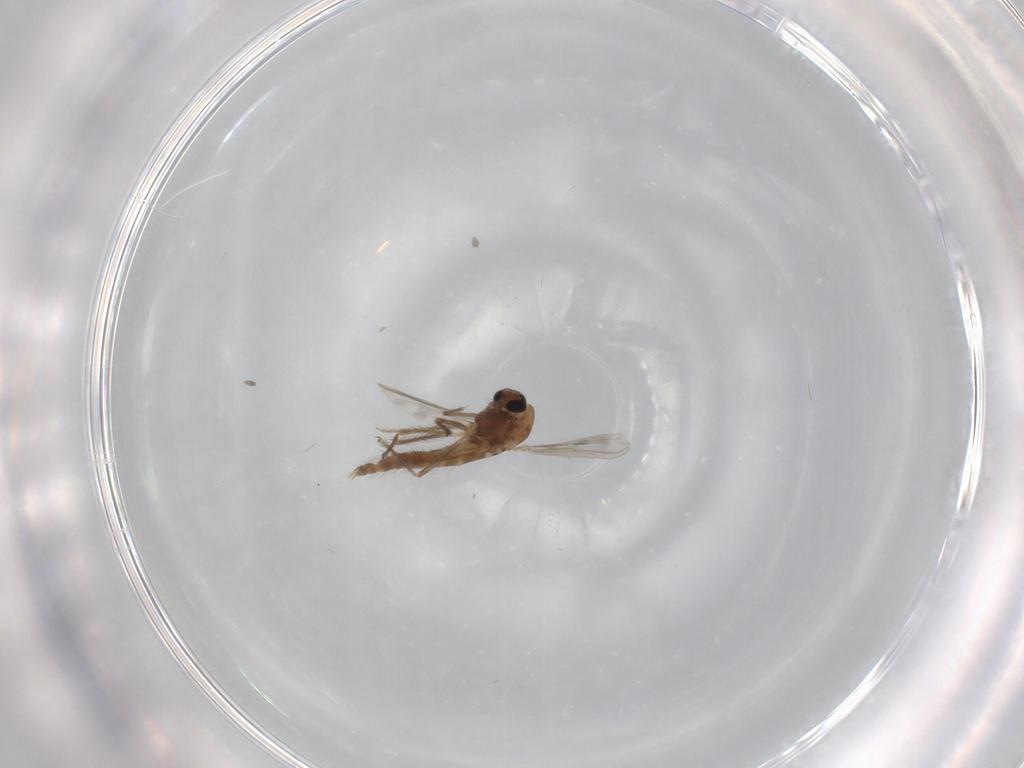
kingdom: Animalia
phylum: Arthropoda
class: Insecta
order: Diptera
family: Chironomidae
